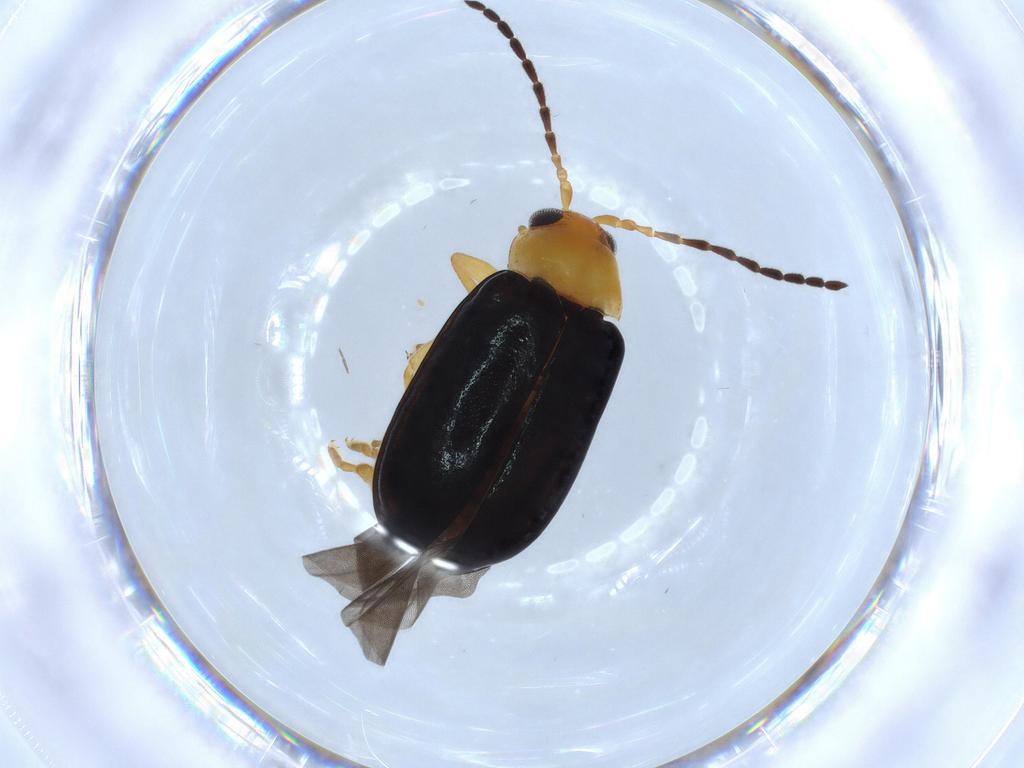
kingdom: Animalia
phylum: Arthropoda
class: Insecta
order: Coleoptera
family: Chrysomelidae
